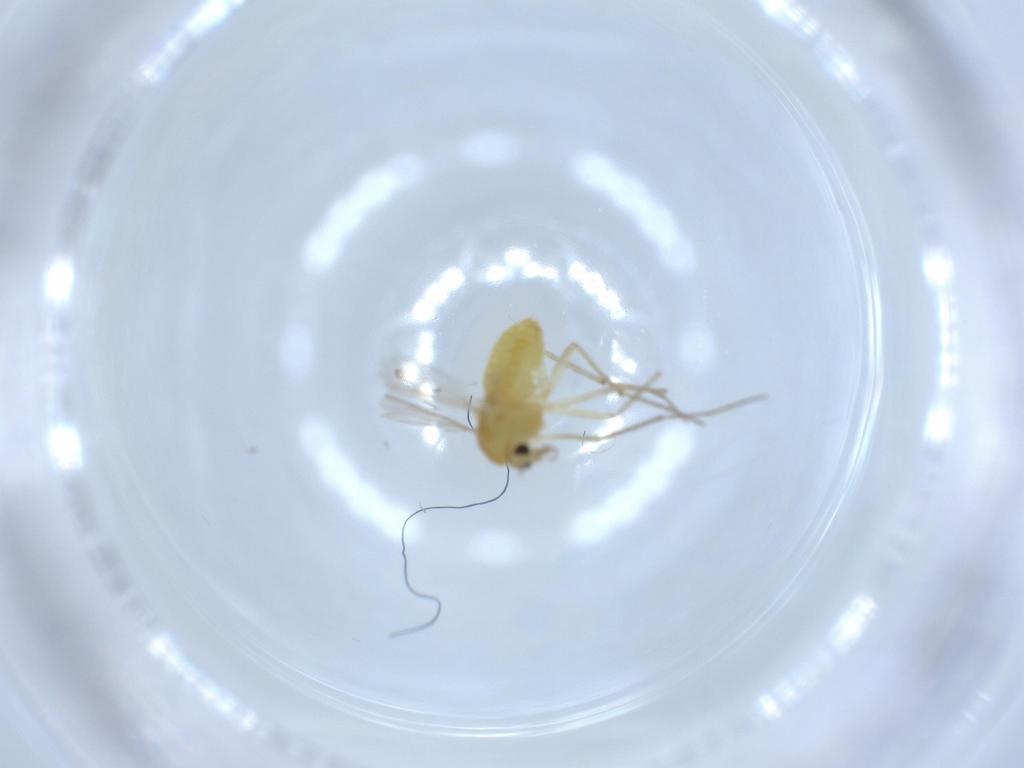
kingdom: Animalia
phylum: Arthropoda
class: Insecta
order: Diptera
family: Chironomidae
